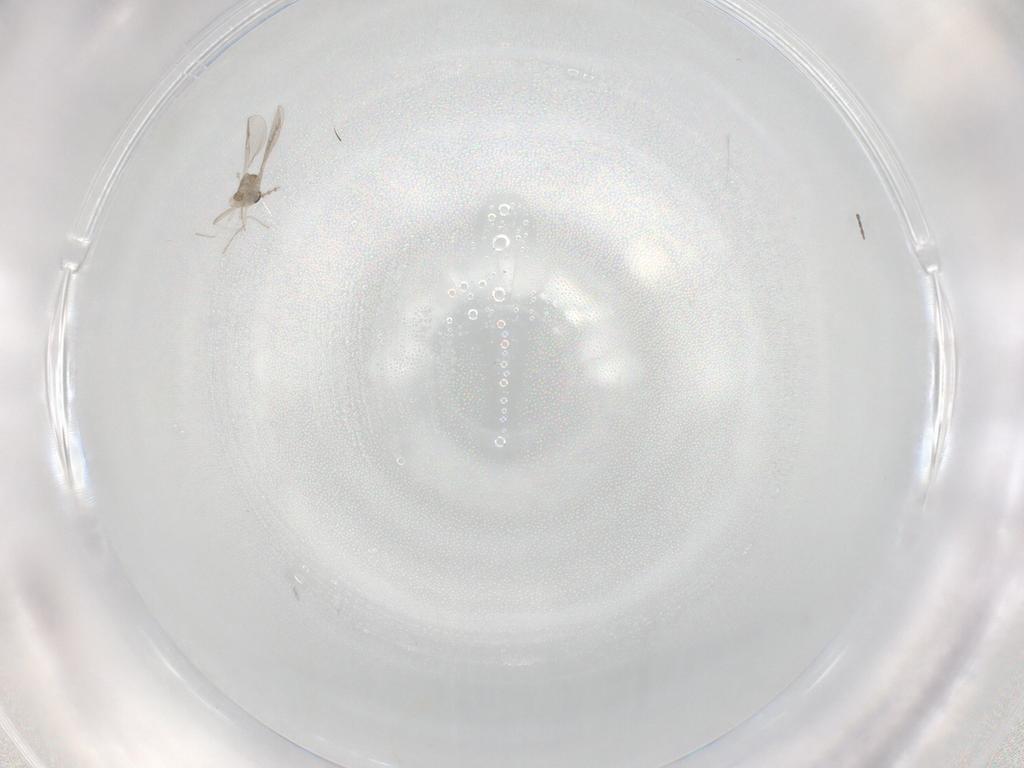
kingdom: Animalia
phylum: Arthropoda
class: Insecta
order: Diptera
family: Cecidomyiidae
